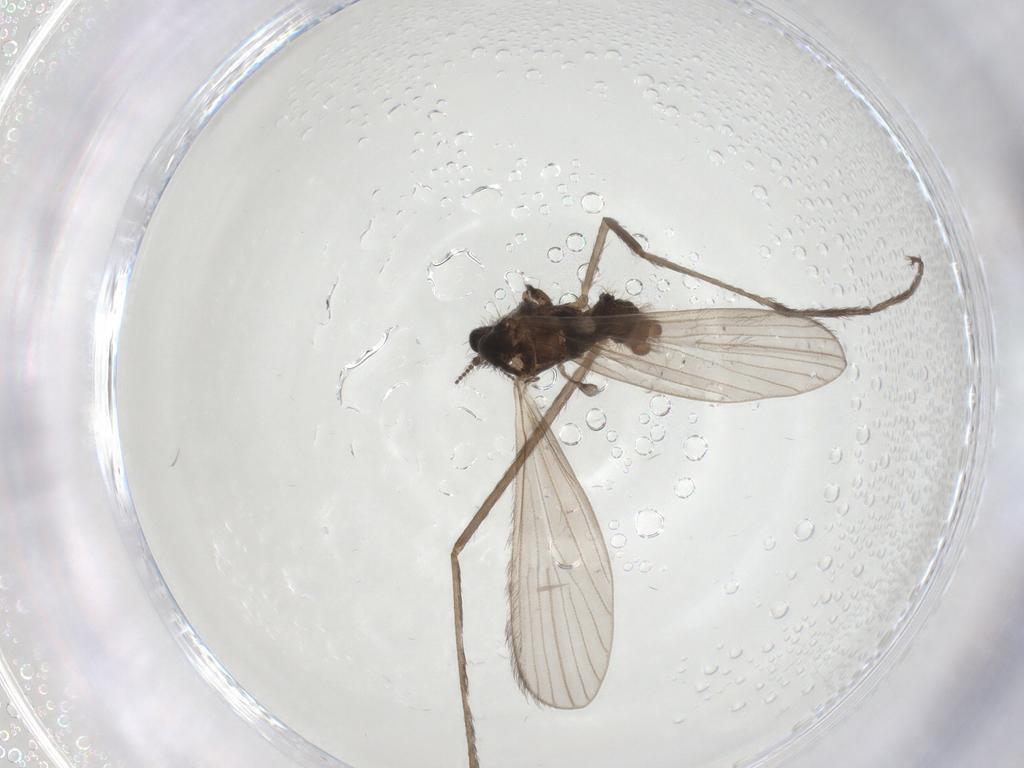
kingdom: Animalia
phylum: Arthropoda
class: Insecta
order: Diptera
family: Limoniidae
